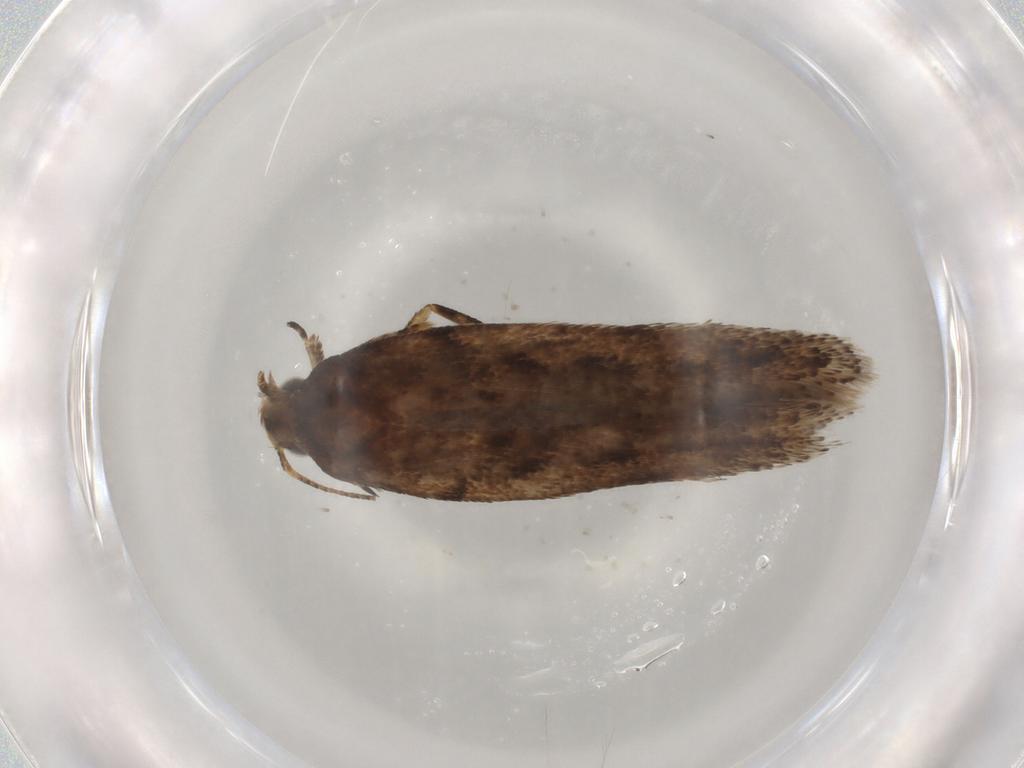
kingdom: Animalia
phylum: Arthropoda
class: Insecta
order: Lepidoptera
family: Gelechiidae
